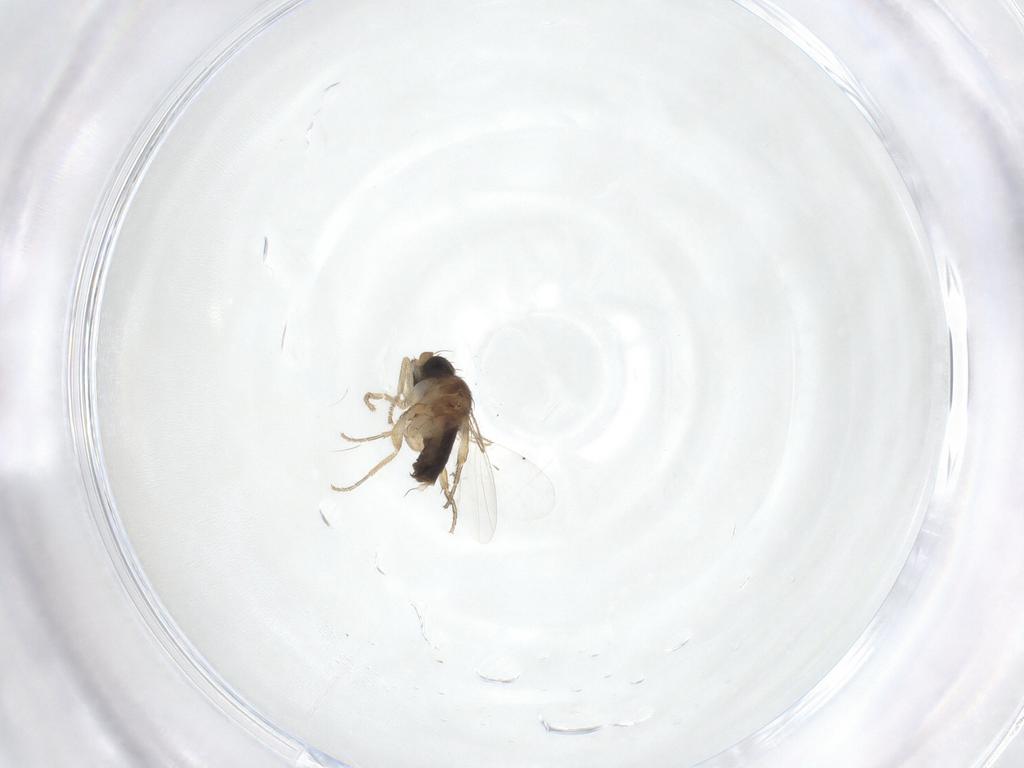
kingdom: Animalia
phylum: Arthropoda
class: Insecta
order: Diptera
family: Phoridae
